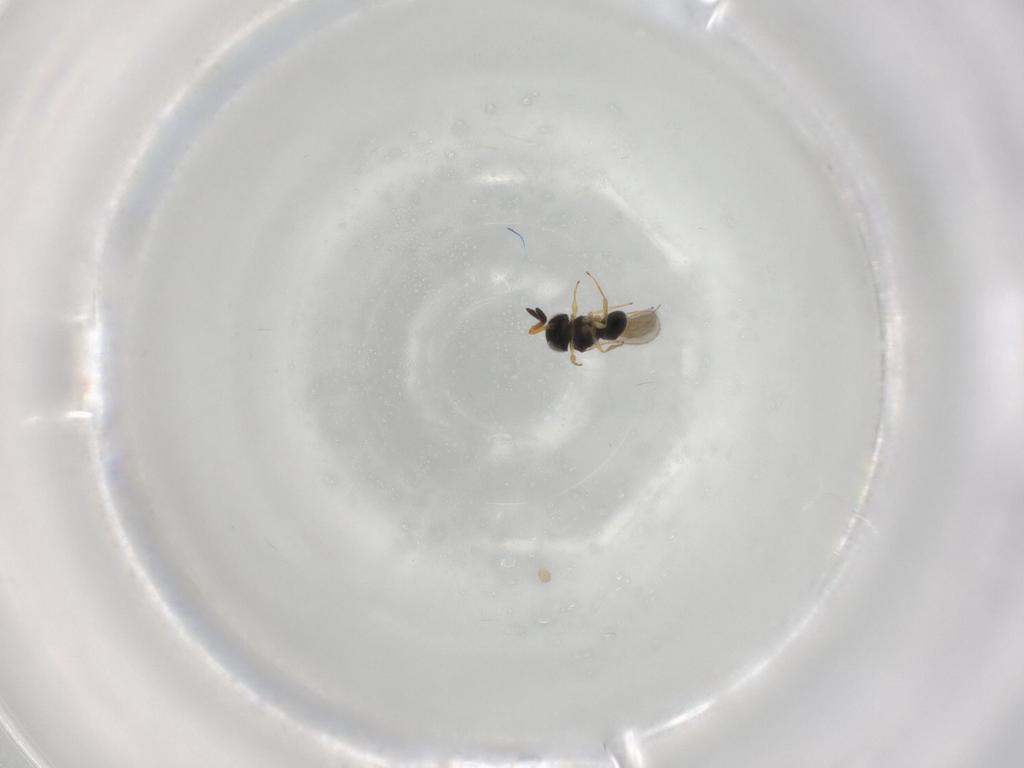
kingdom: Animalia
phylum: Arthropoda
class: Insecta
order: Hymenoptera
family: Scelionidae
